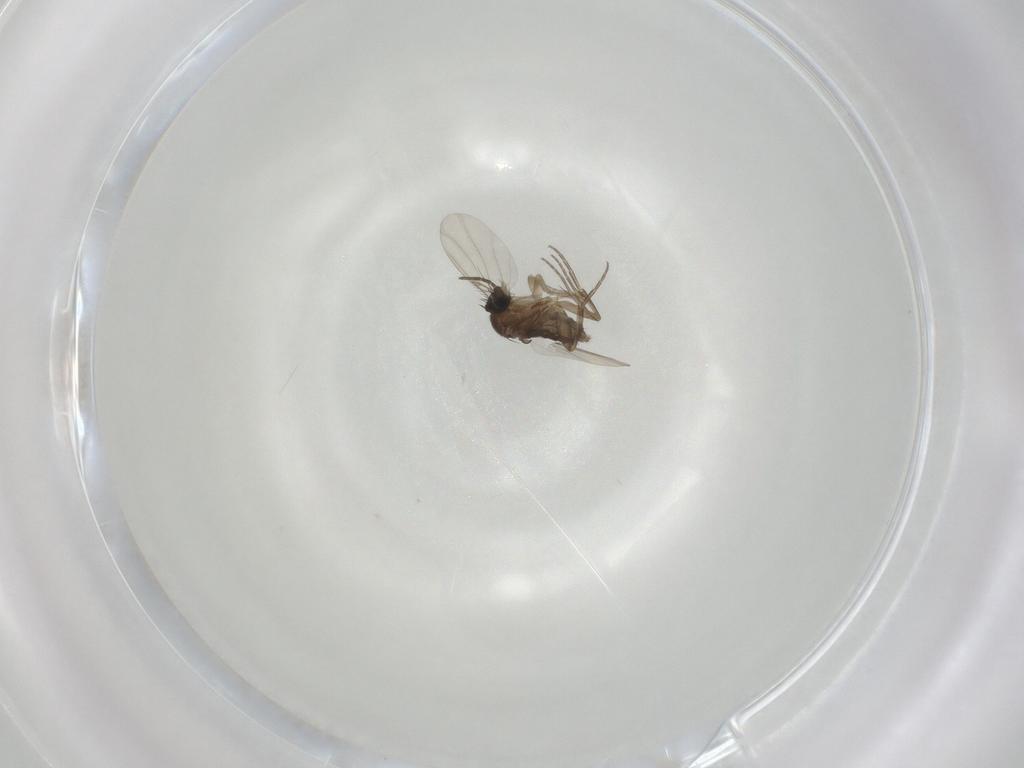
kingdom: Animalia
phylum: Arthropoda
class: Insecta
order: Diptera
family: Sciaridae
